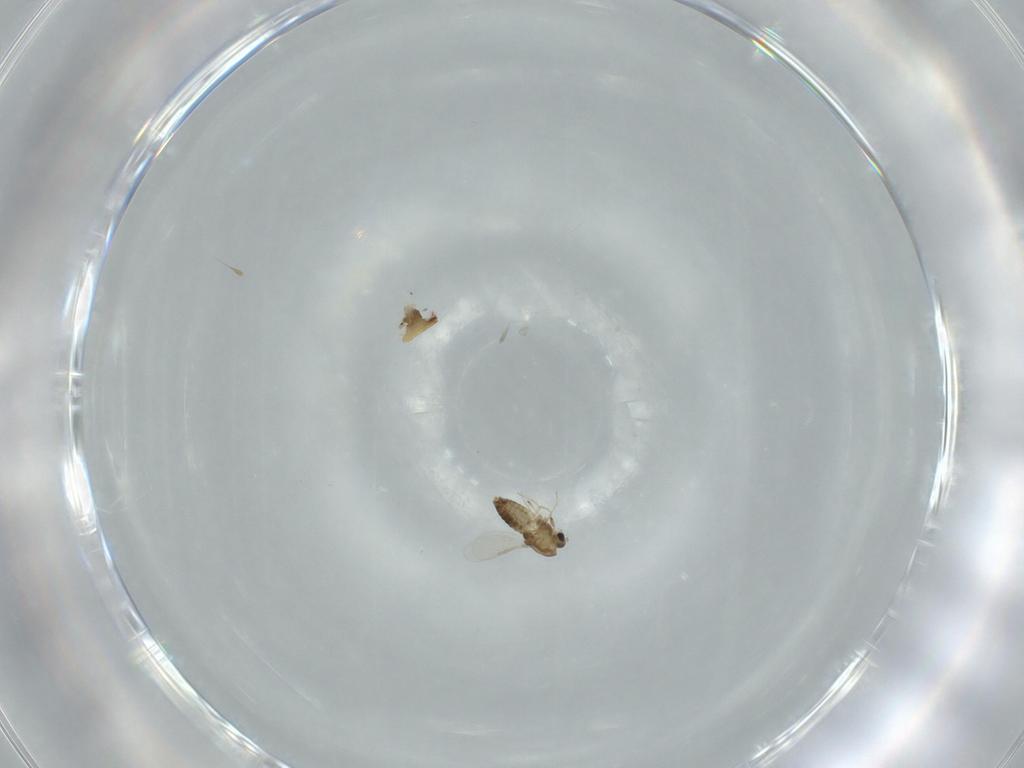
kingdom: Animalia
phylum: Arthropoda
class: Insecta
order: Diptera
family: Chironomidae
